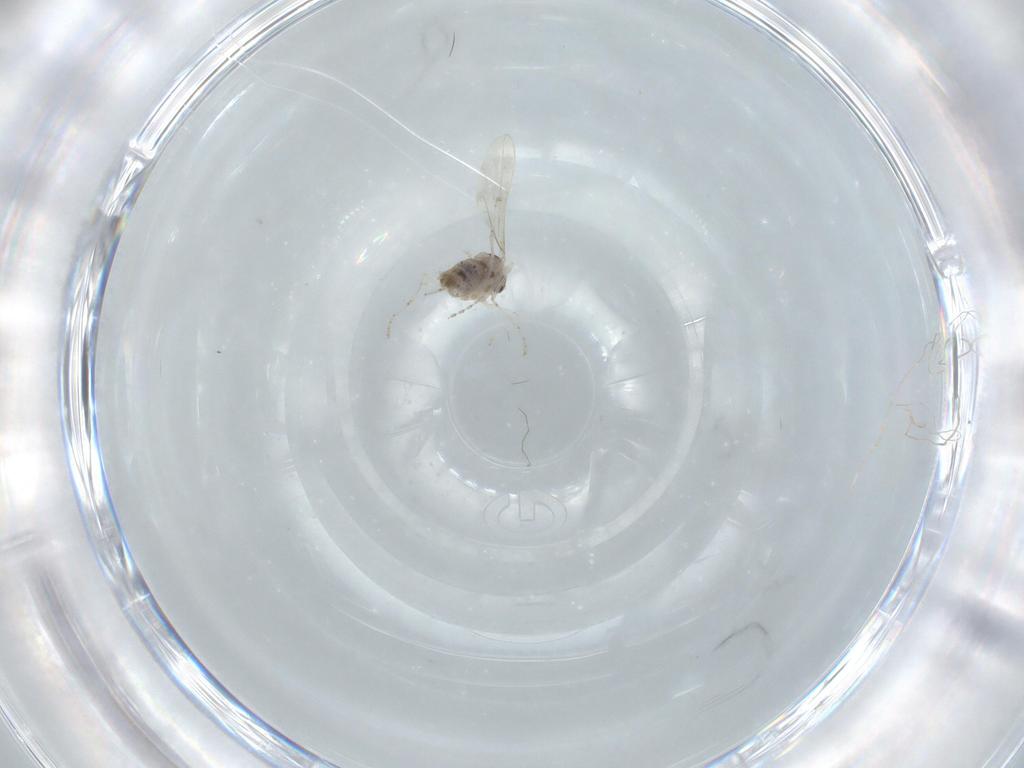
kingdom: Animalia
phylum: Arthropoda
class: Insecta
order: Diptera
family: Cecidomyiidae
